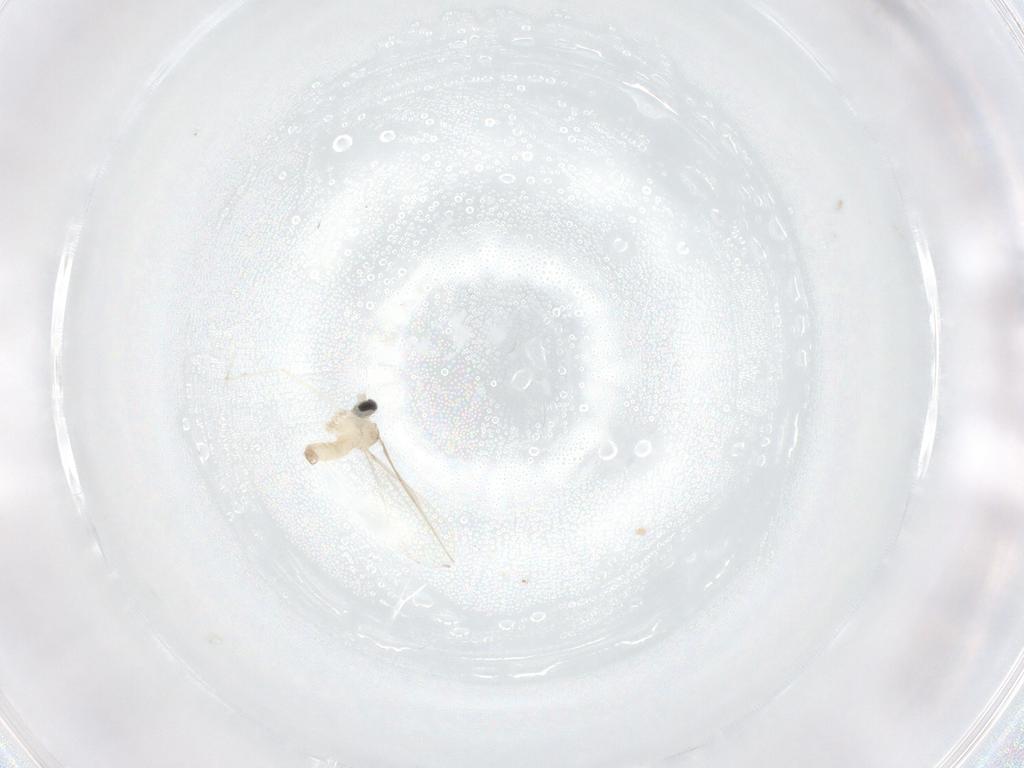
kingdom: Animalia
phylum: Arthropoda
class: Insecta
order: Diptera
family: Cecidomyiidae
